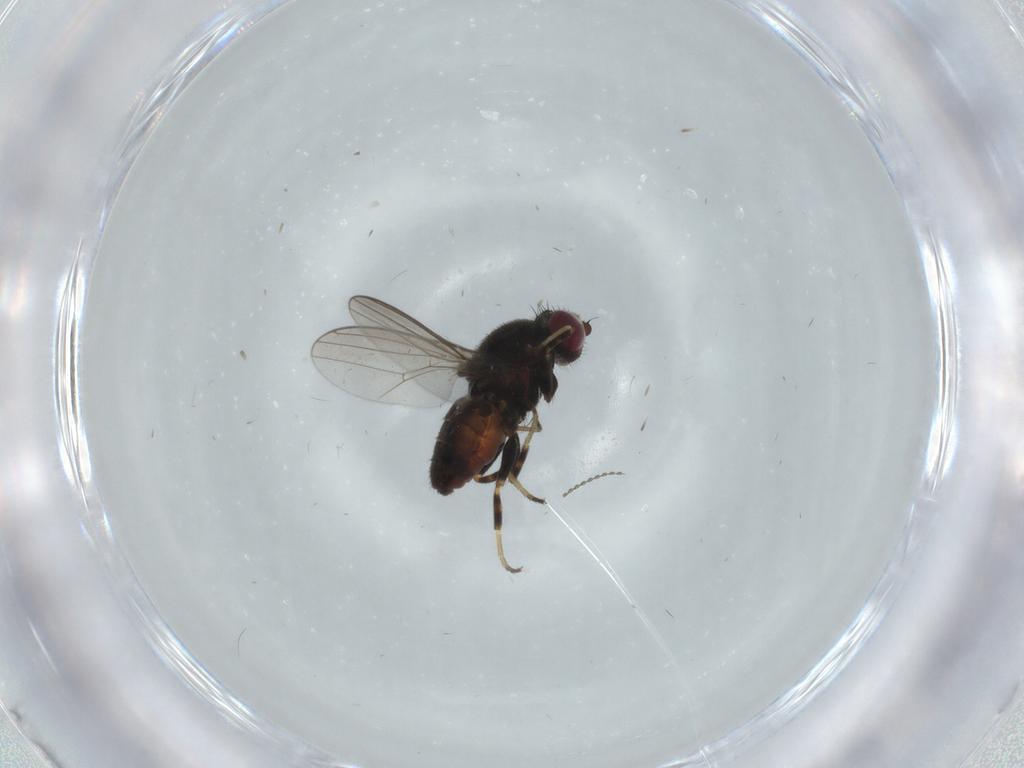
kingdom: Animalia
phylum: Arthropoda
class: Insecta
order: Diptera
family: Chloropidae
